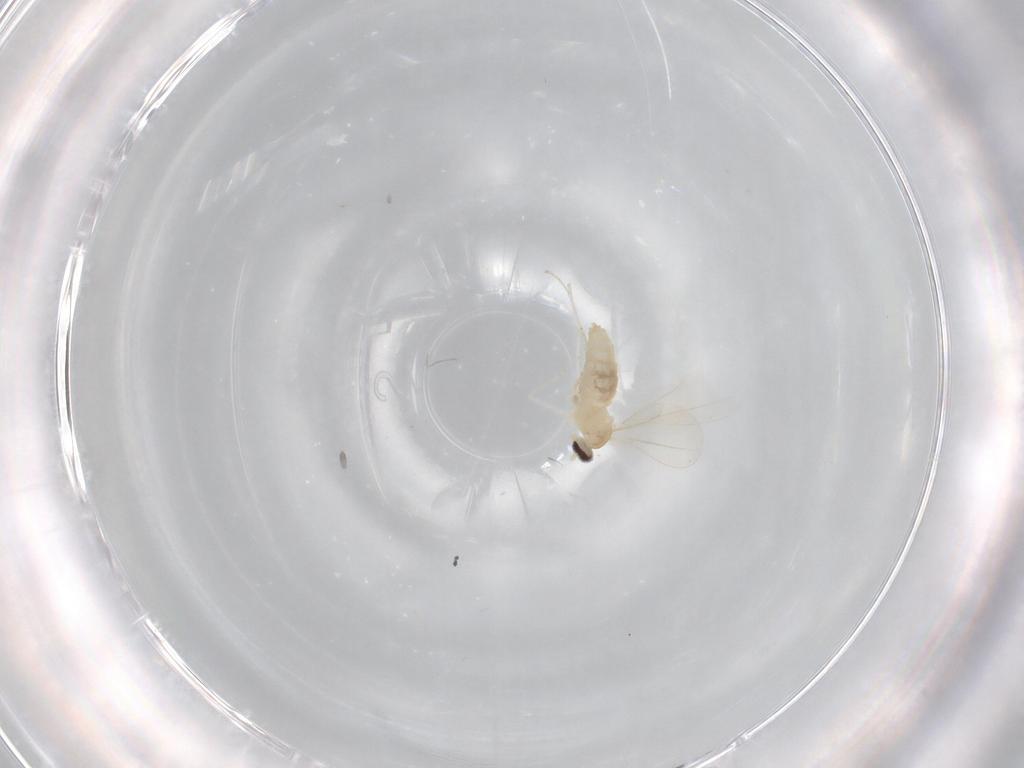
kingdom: Animalia
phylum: Arthropoda
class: Insecta
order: Diptera
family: Cecidomyiidae
